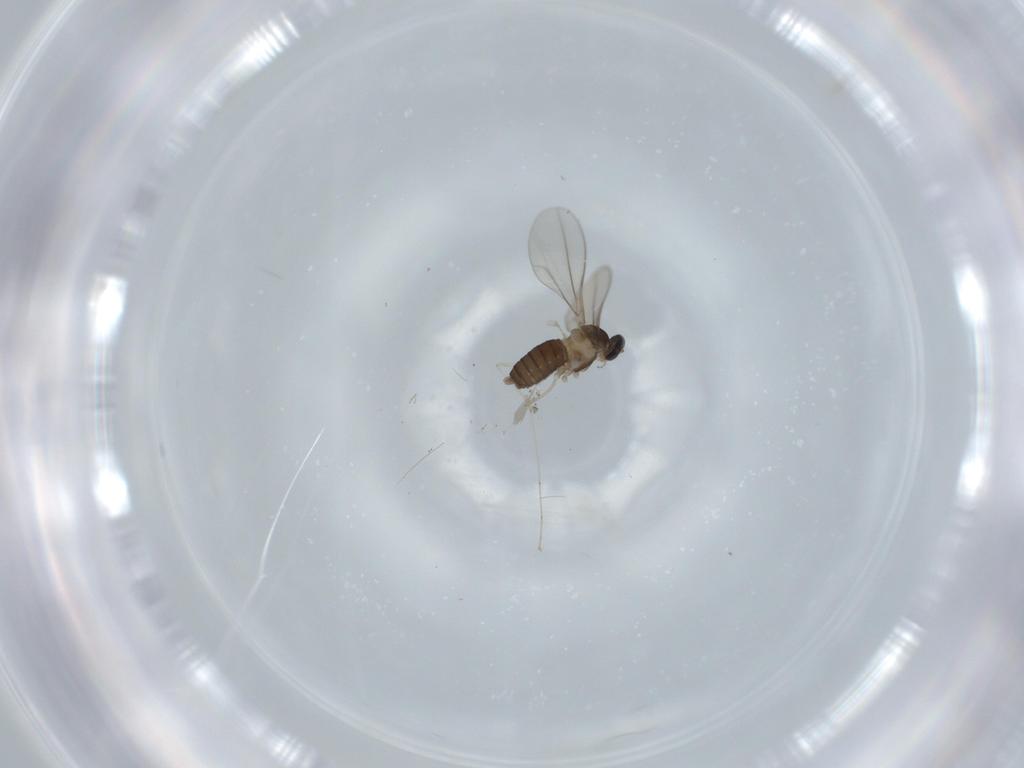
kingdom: Animalia
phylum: Arthropoda
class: Insecta
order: Diptera
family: Cecidomyiidae
